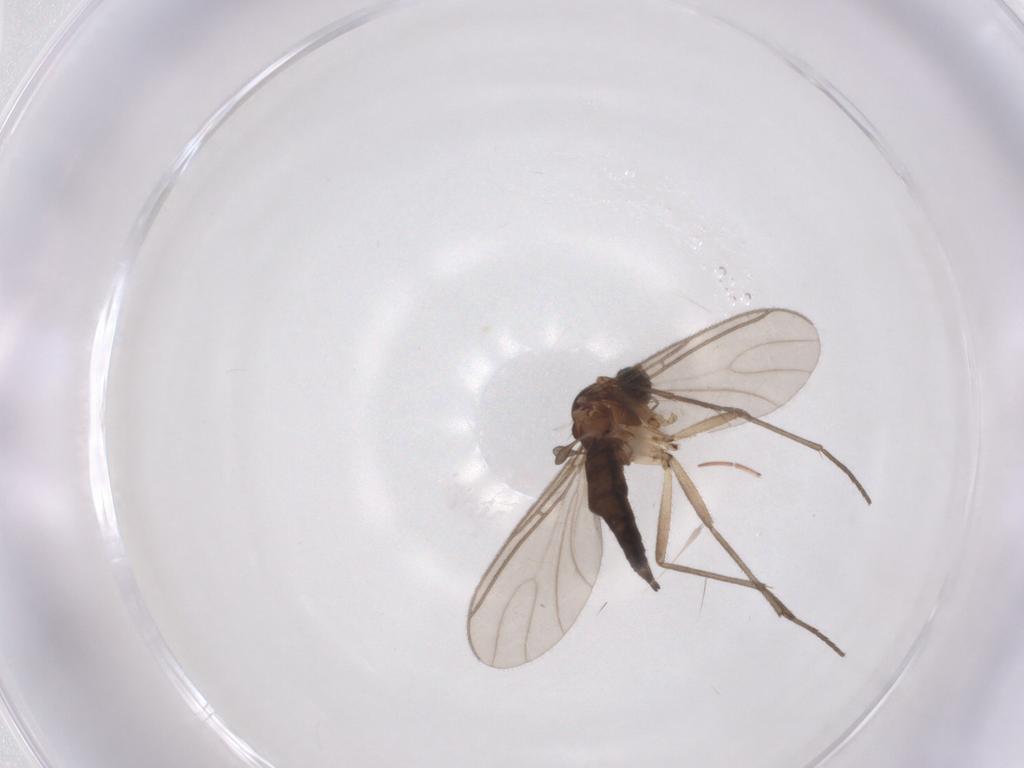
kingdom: Animalia
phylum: Arthropoda
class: Insecta
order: Diptera
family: Sciaridae
